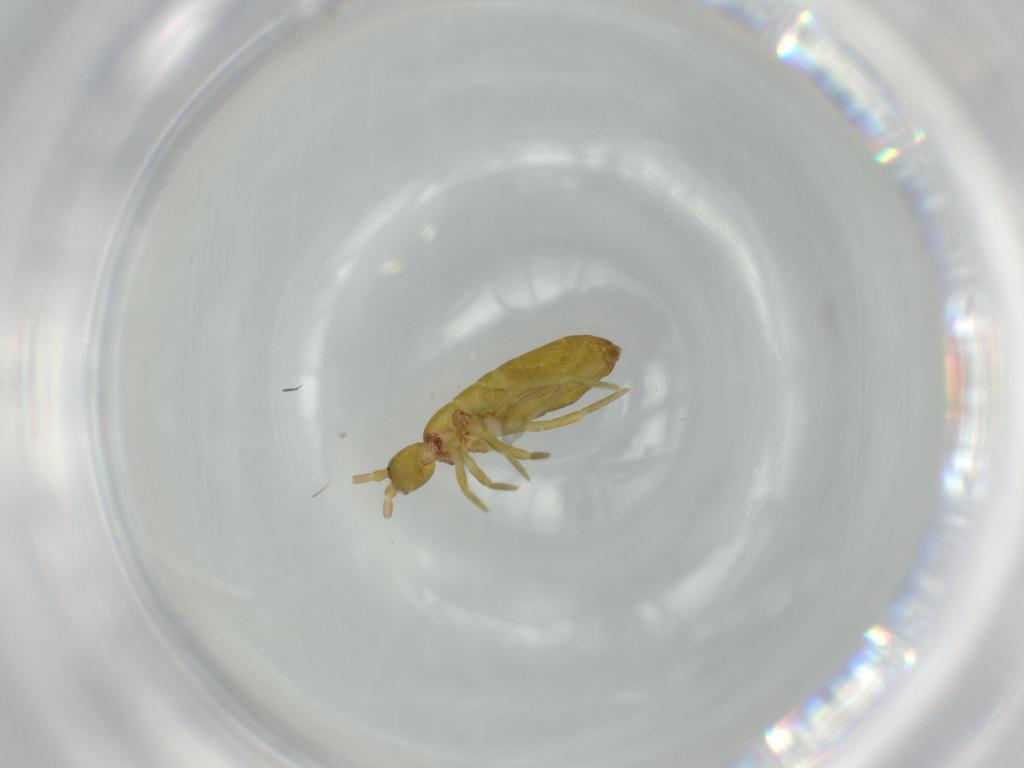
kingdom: Animalia
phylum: Arthropoda
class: Collembola
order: Entomobryomorpha
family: Tomoceridae
